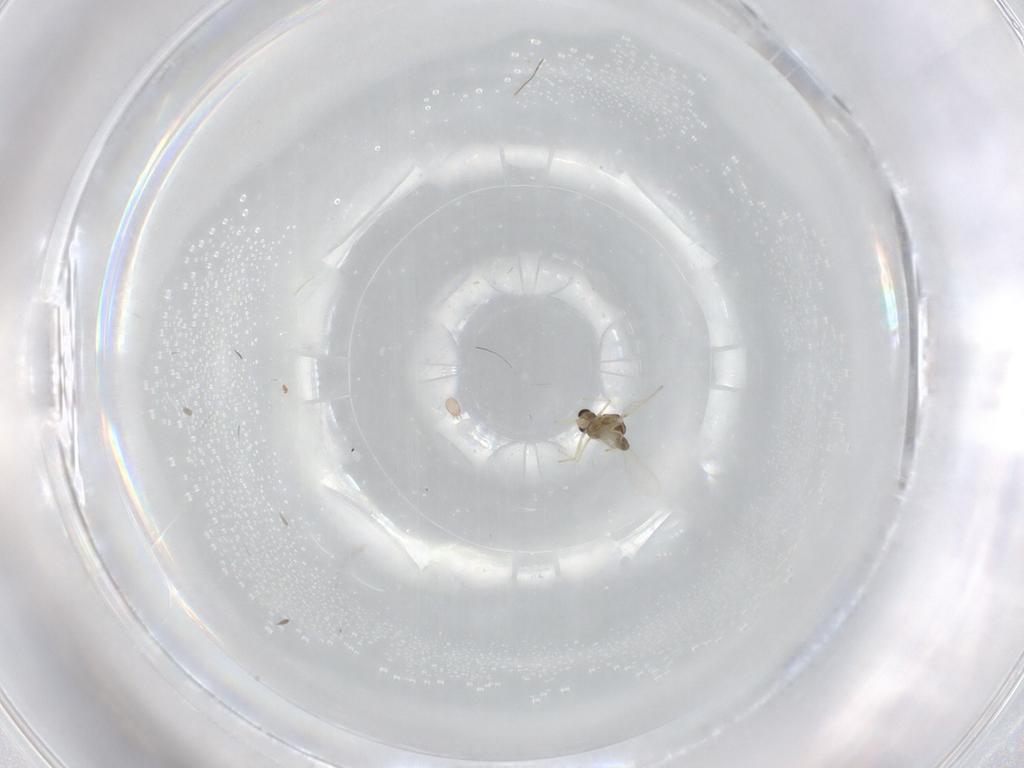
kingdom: Animalia
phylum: Arthropoda
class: Insecta
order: Diptera
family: Chironomidae
